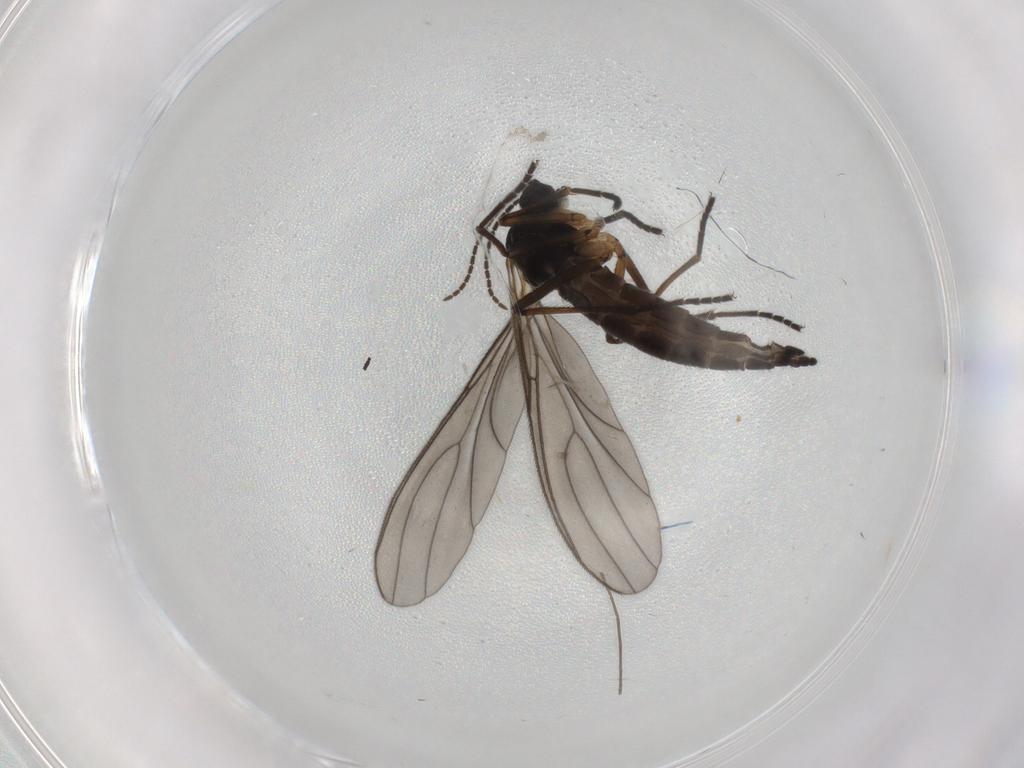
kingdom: Animalia
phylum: Arthropoda
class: Insecta
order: Diptera
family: Sciaridae
